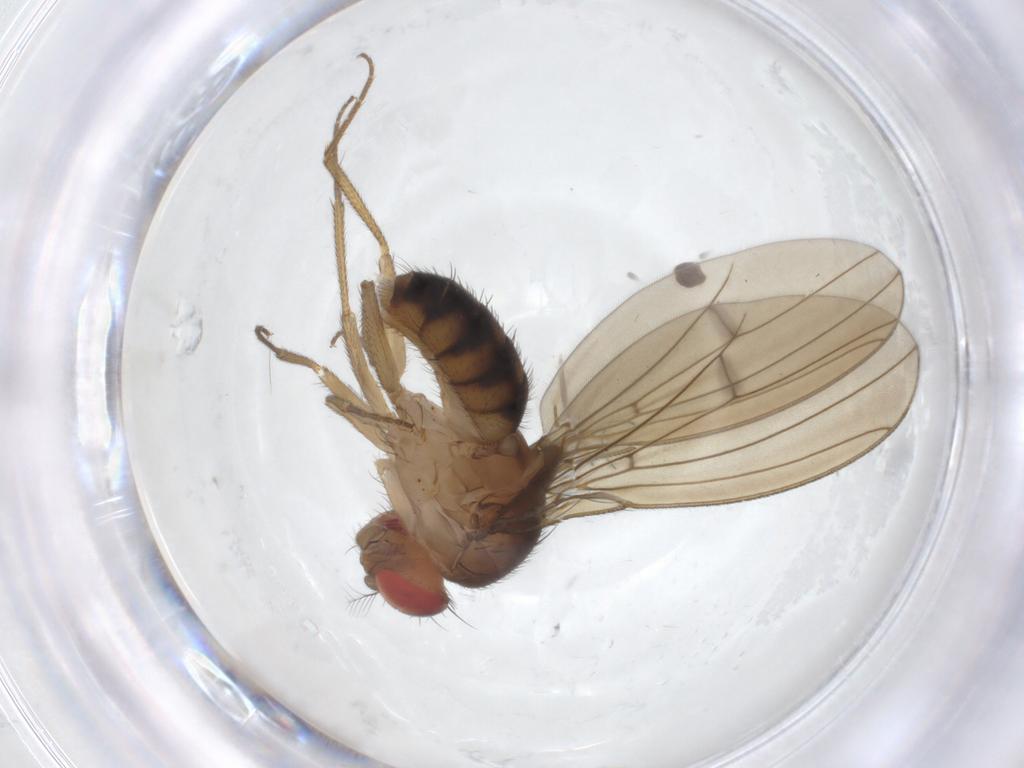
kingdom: Animalia
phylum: Arthropoda
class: Insecta
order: Diptera
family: Drosophilidae
